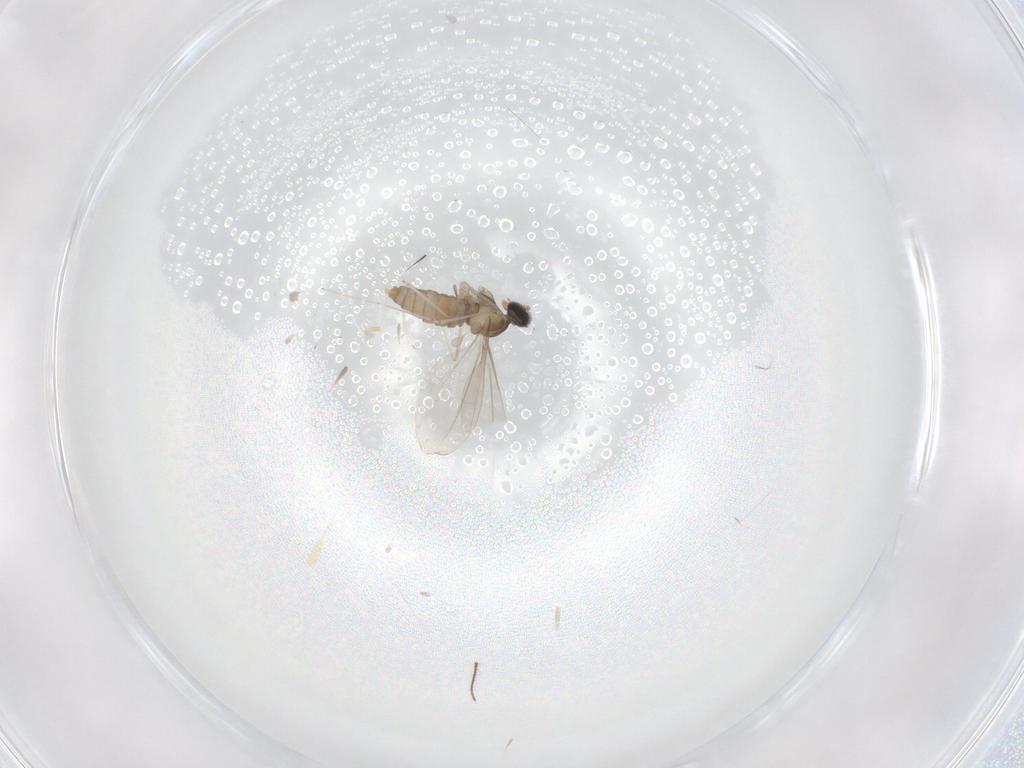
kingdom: Animalia
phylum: Arthropoda
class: Insecta
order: Diptera
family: Cecidomyiidae
